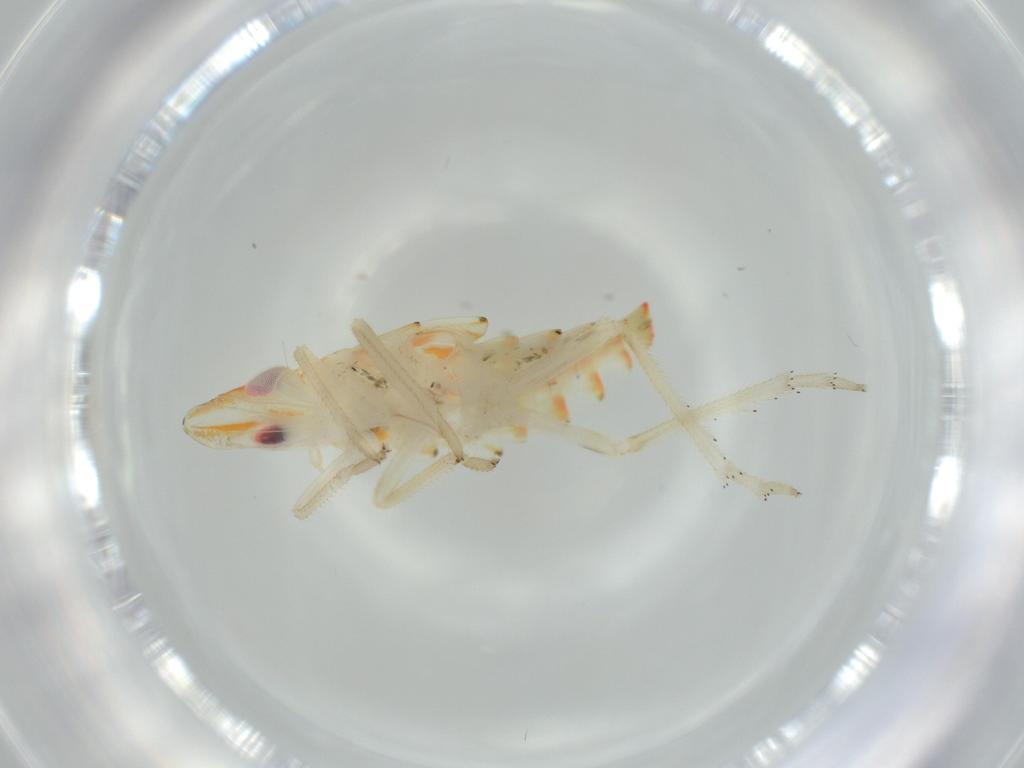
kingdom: Animalia
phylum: Arthropoda
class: Insecta
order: Hemiptera
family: Tropiduchidae
